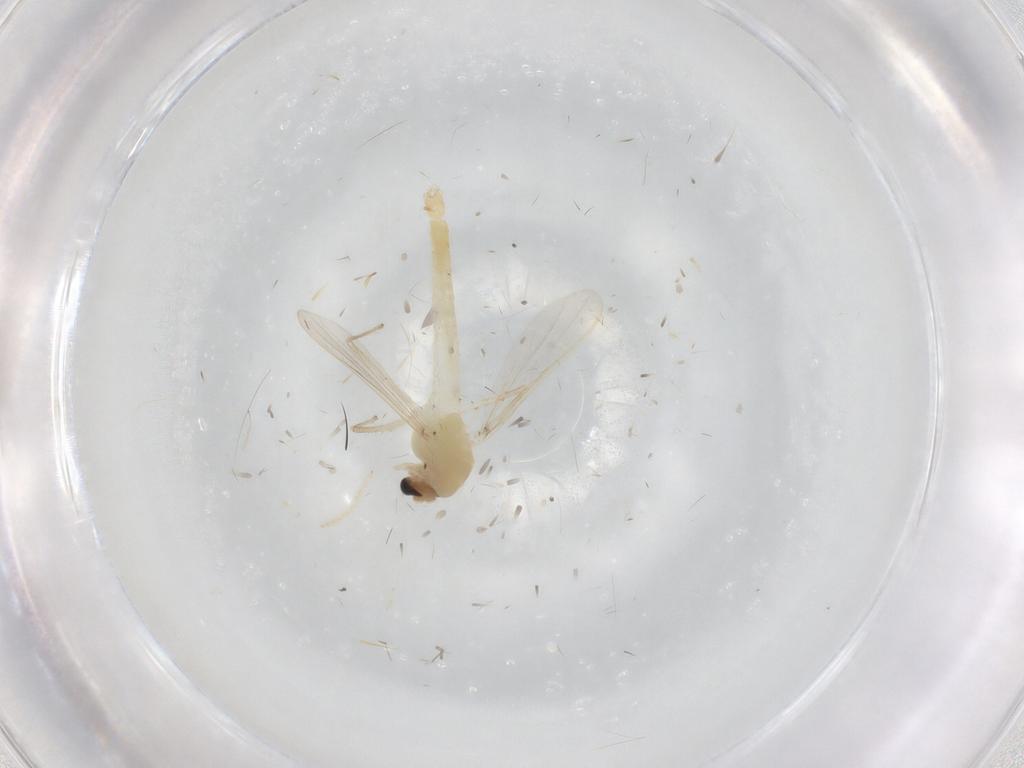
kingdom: Animalia
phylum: Arthropoda
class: Insecta
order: Diptera
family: Chironomidae
